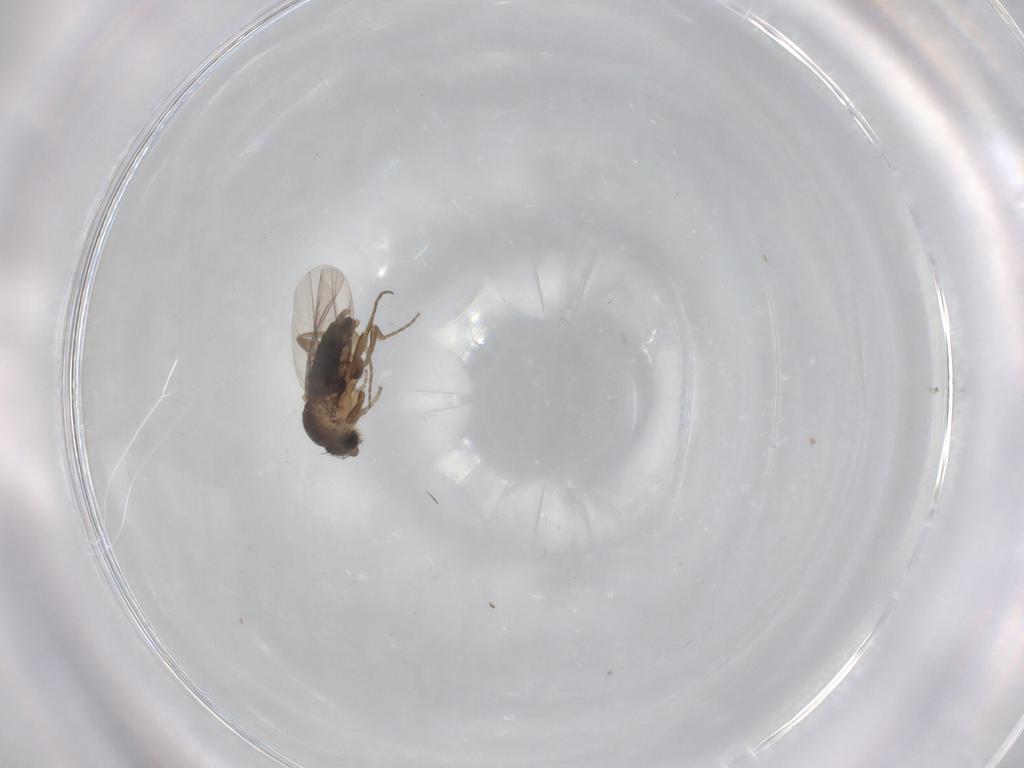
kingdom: Animalia
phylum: Arthropoda
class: Insecta
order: Diptera
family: Phoridae
